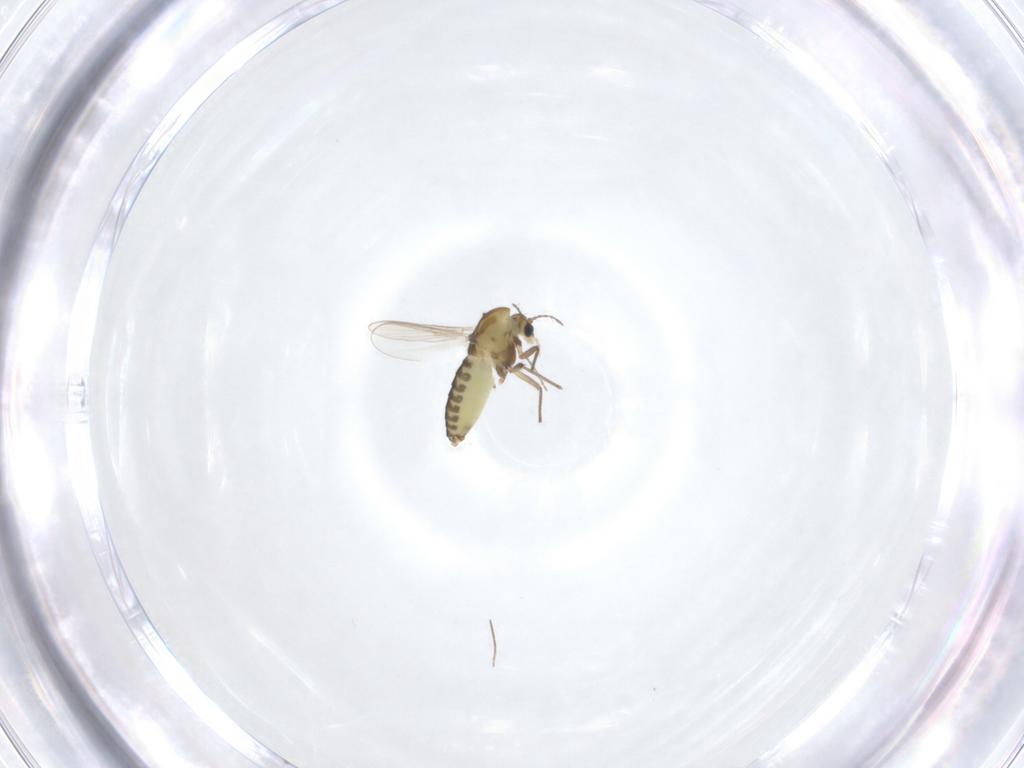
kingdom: Animalia
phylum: Arthropoda
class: Insecta
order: Diptera
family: Chironomidae
